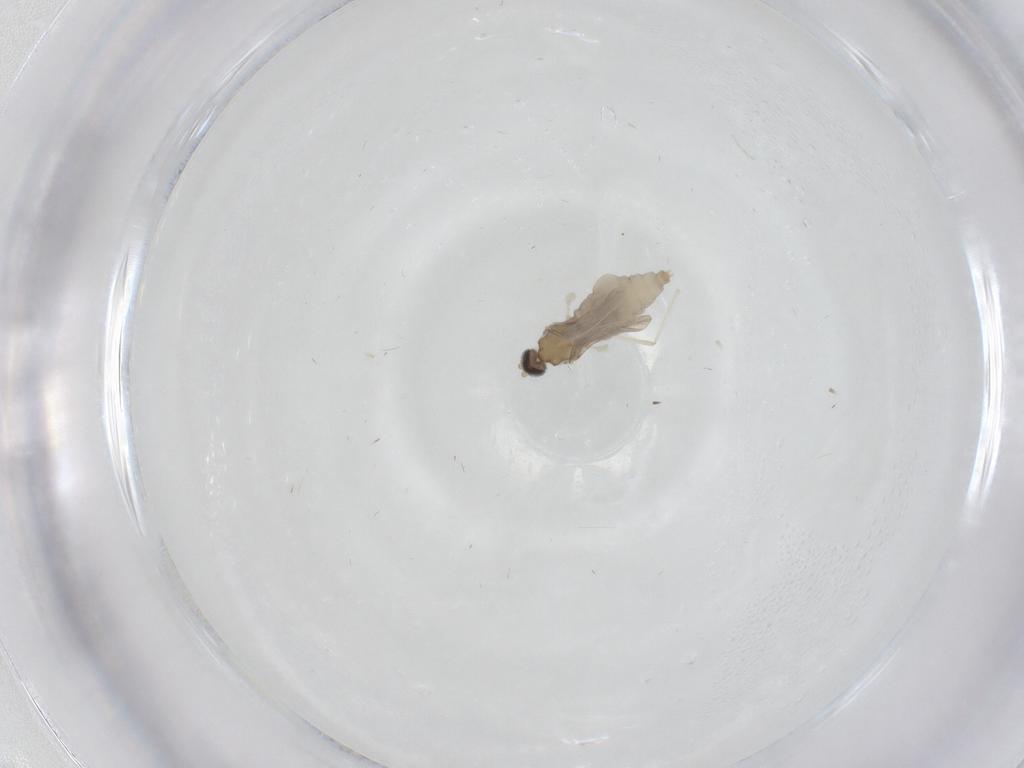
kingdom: Animalia
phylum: Arthropoda
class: Insecta
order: Diptera
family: Cecidomyiidae
